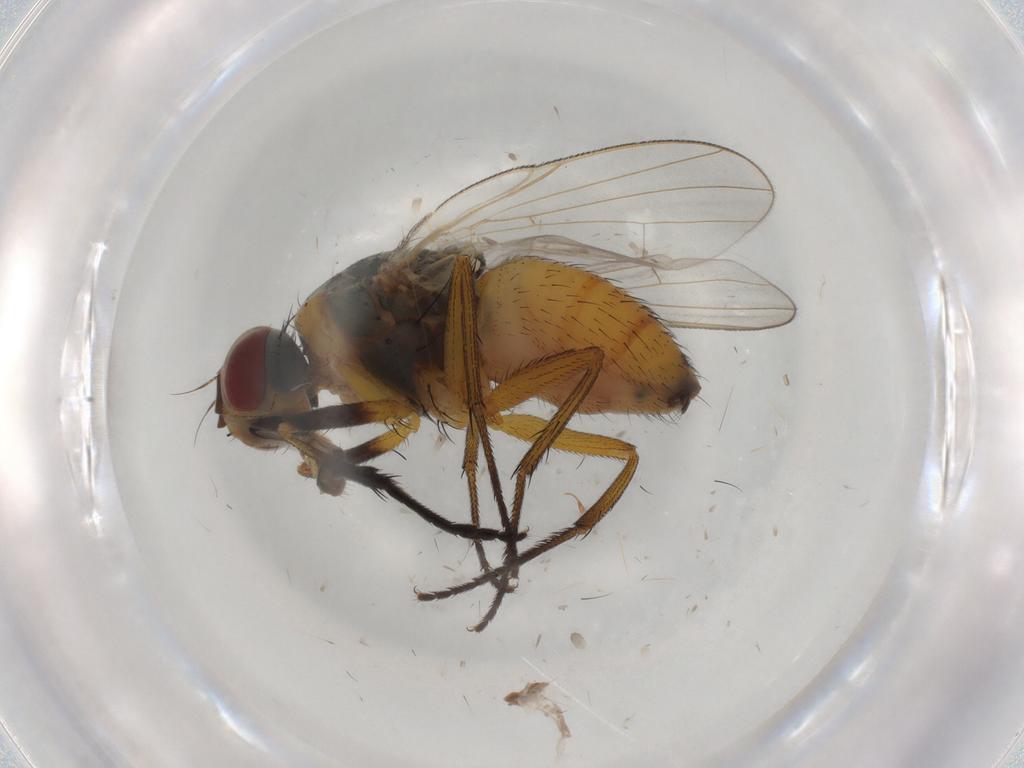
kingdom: Animalia
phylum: Arthropoda
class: Insecta
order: Diptera
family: Muscidae
